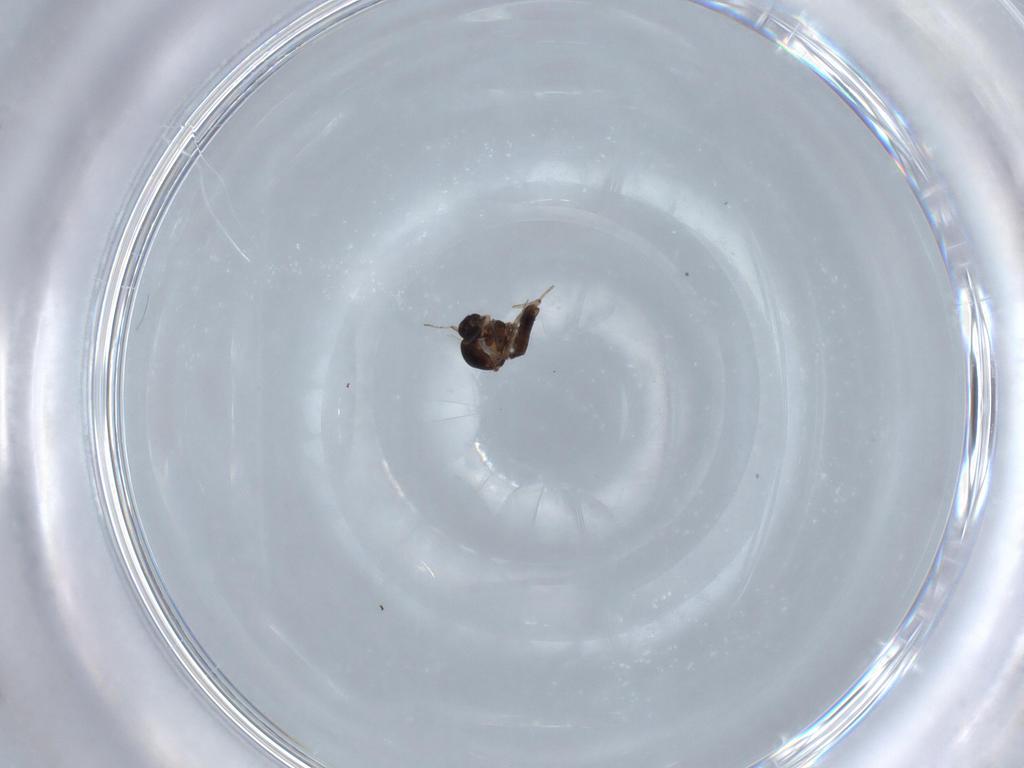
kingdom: Animalia
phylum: Arthropoda
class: Insecta
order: Diptera
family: Ceratopogonidae
